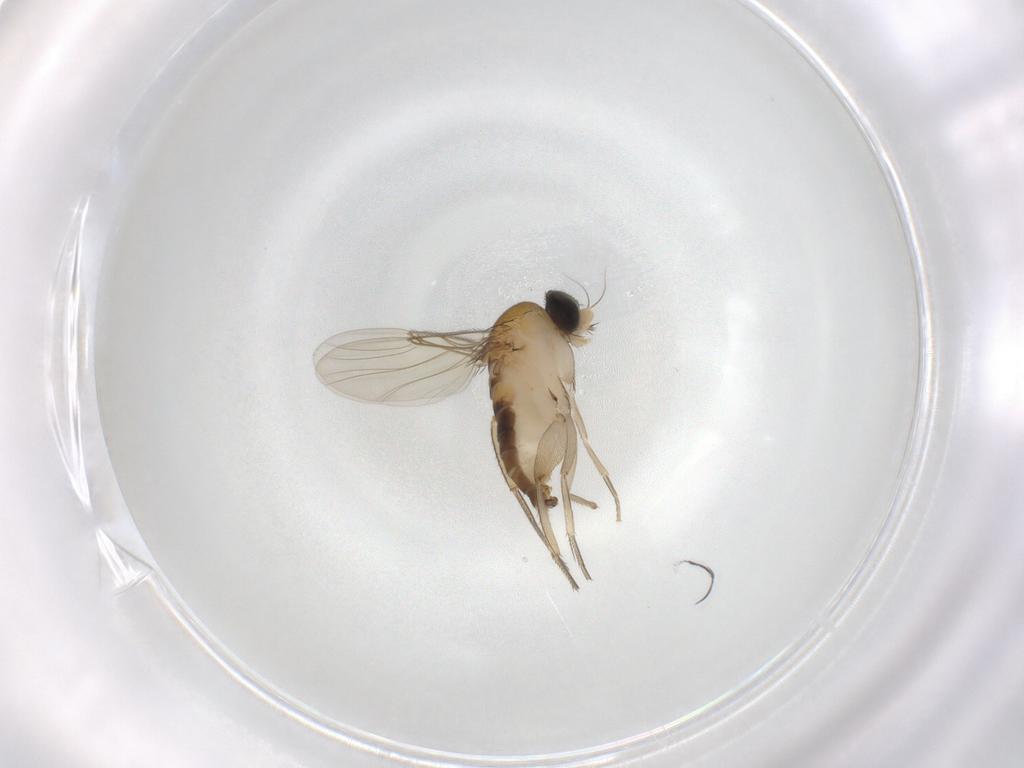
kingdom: Animalia
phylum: Arthropoda
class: Insecta
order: Diptera
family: Phoridae
